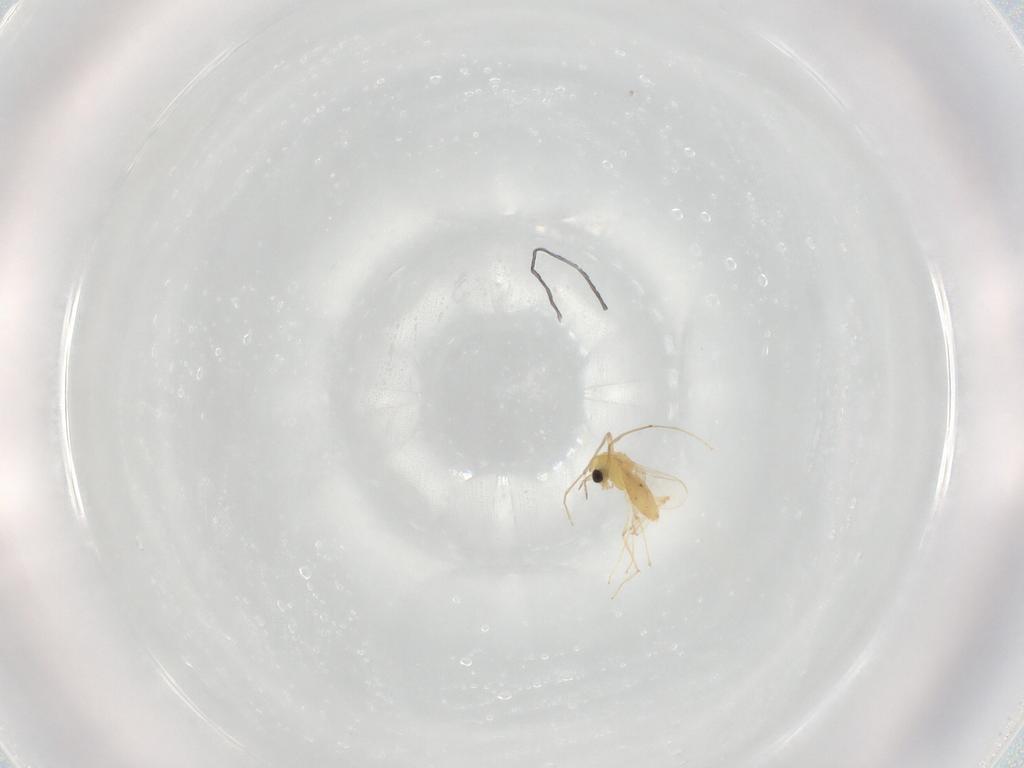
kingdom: Animalia
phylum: Arthropoda
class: Insecta
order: Diptera
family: Chironomidae
